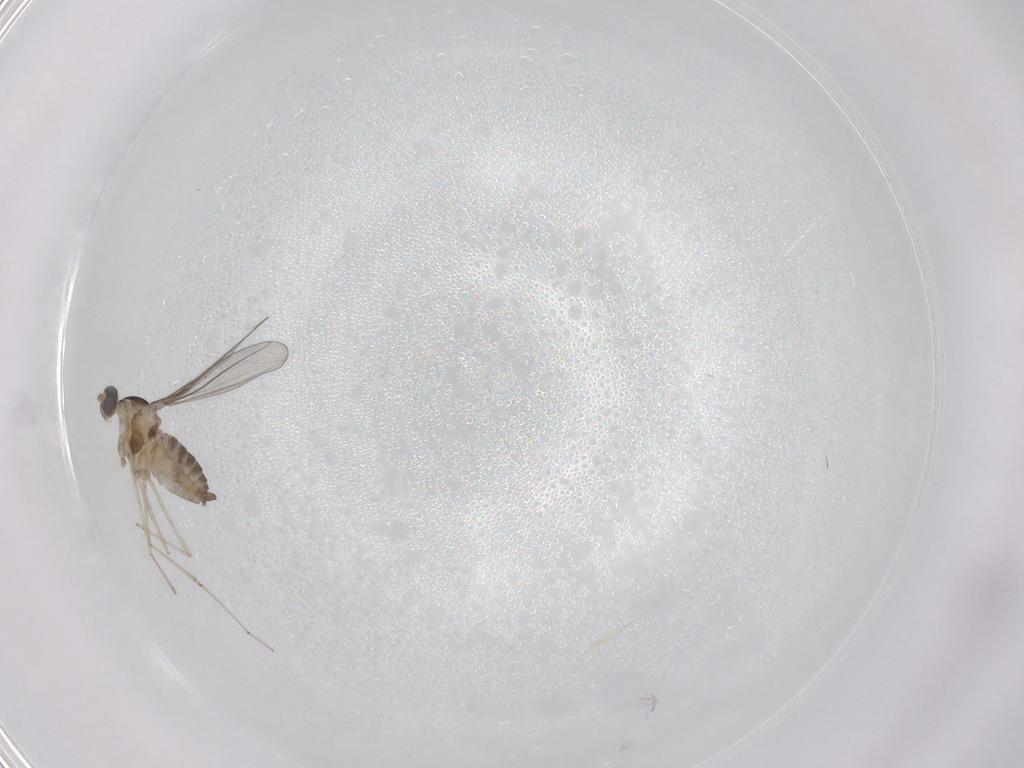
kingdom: Animalia
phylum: Arthropoda
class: Insecta
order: Diptera
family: Cecidomyiidae
